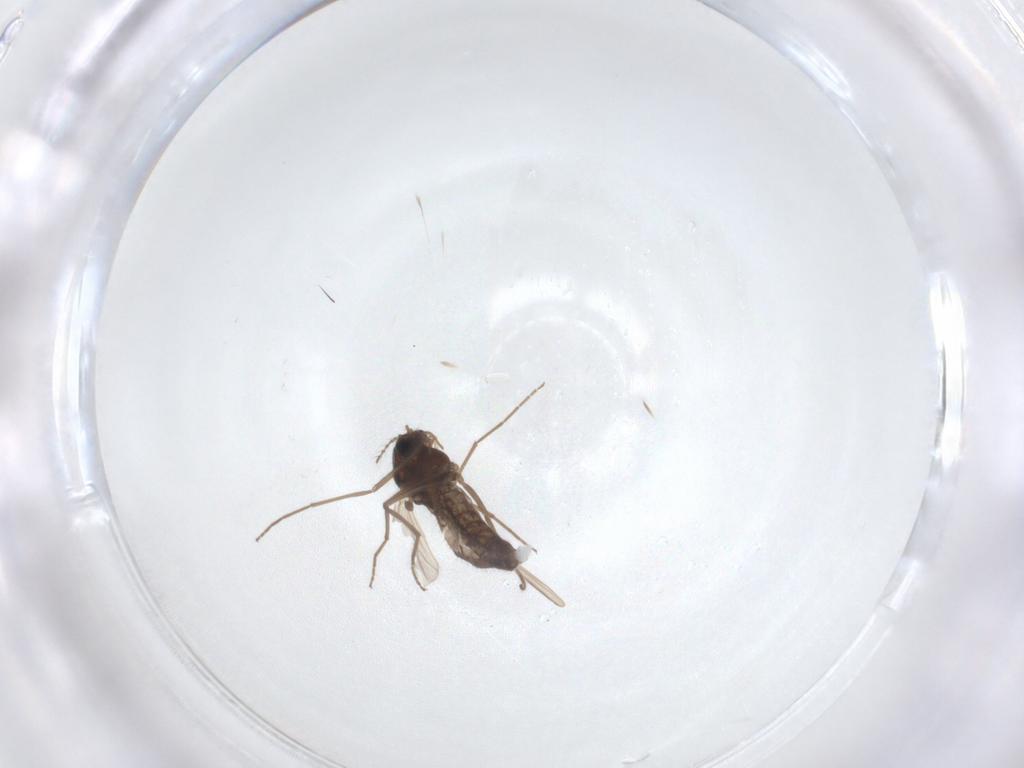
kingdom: Animalia
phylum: Arthropoda
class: Insecta
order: Diptera
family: Chironomidae
